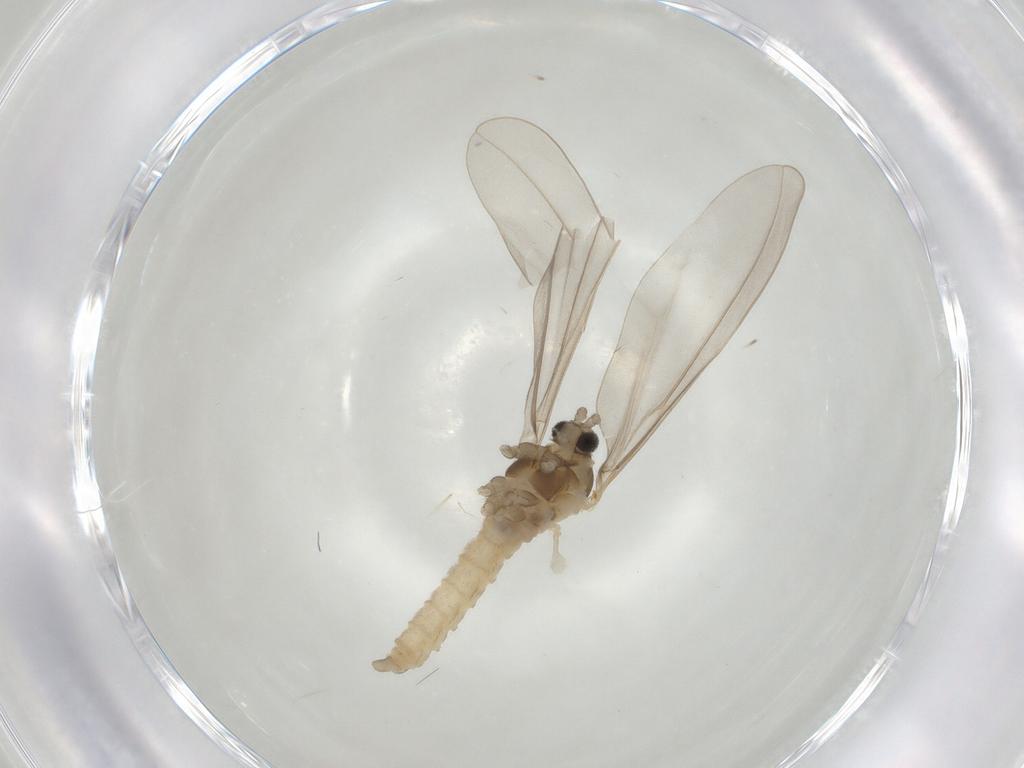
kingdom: Animalia
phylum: Arthropoda
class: Insecta
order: Diptera
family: Cecidomyiidae
